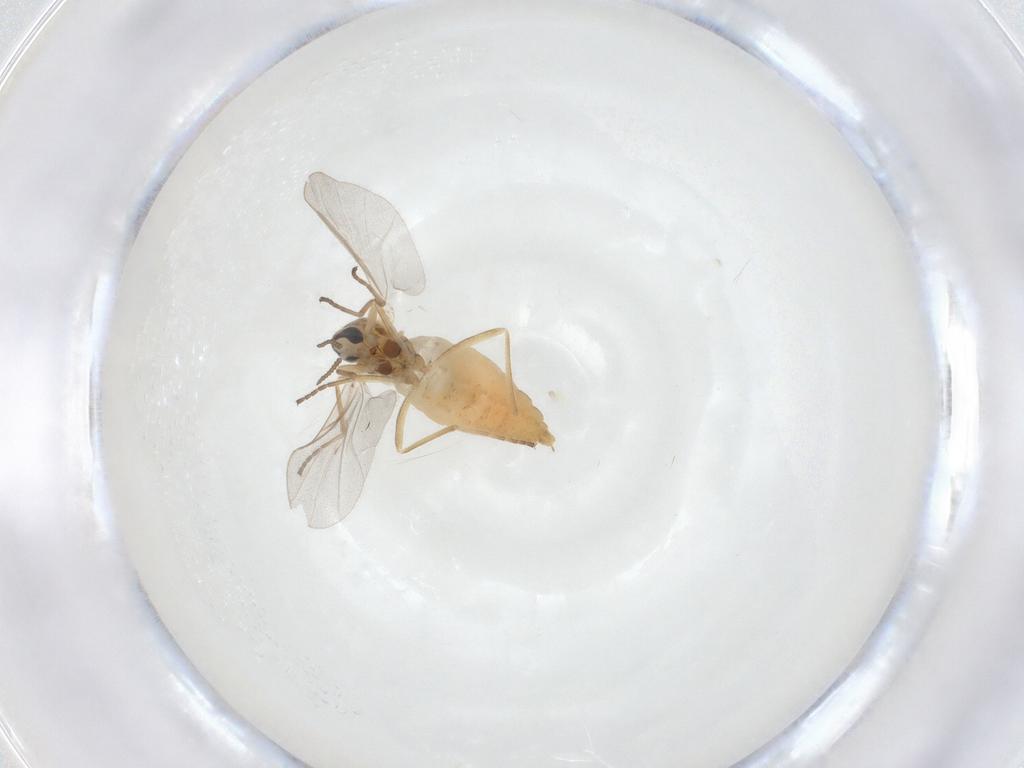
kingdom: Animalia
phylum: Arthropoda
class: Insecta
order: Diptera
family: Cecidomyiidae
